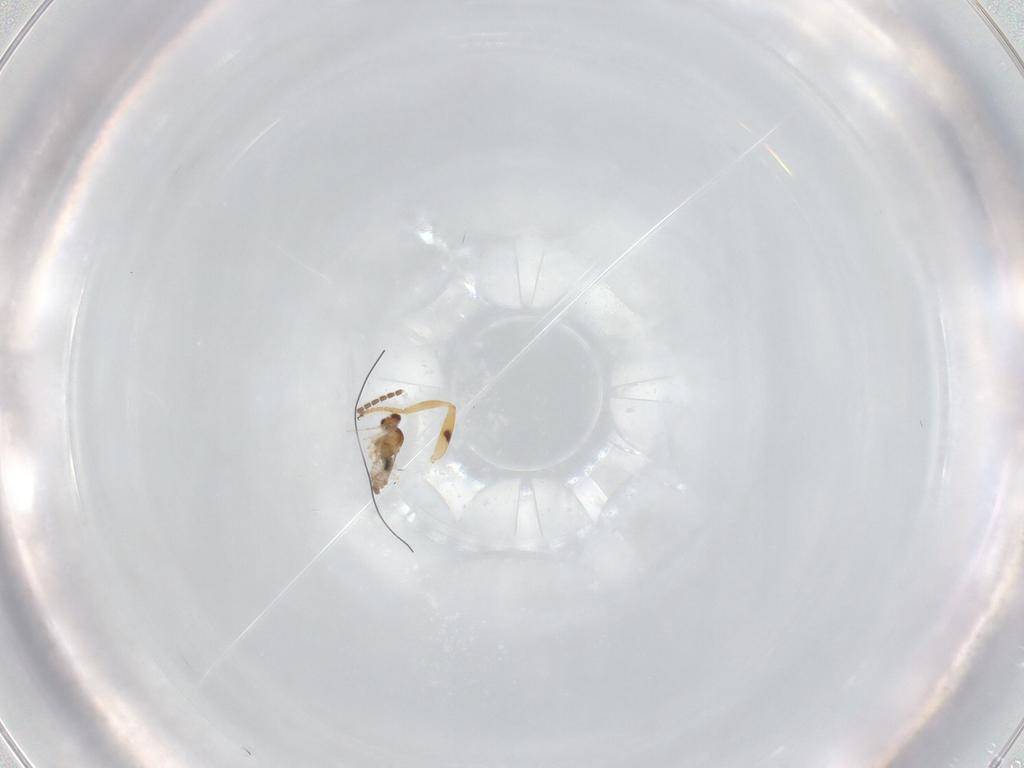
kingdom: Animalia
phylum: Arthropoda
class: Insecta
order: Diptera
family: Cecidomyiidae
